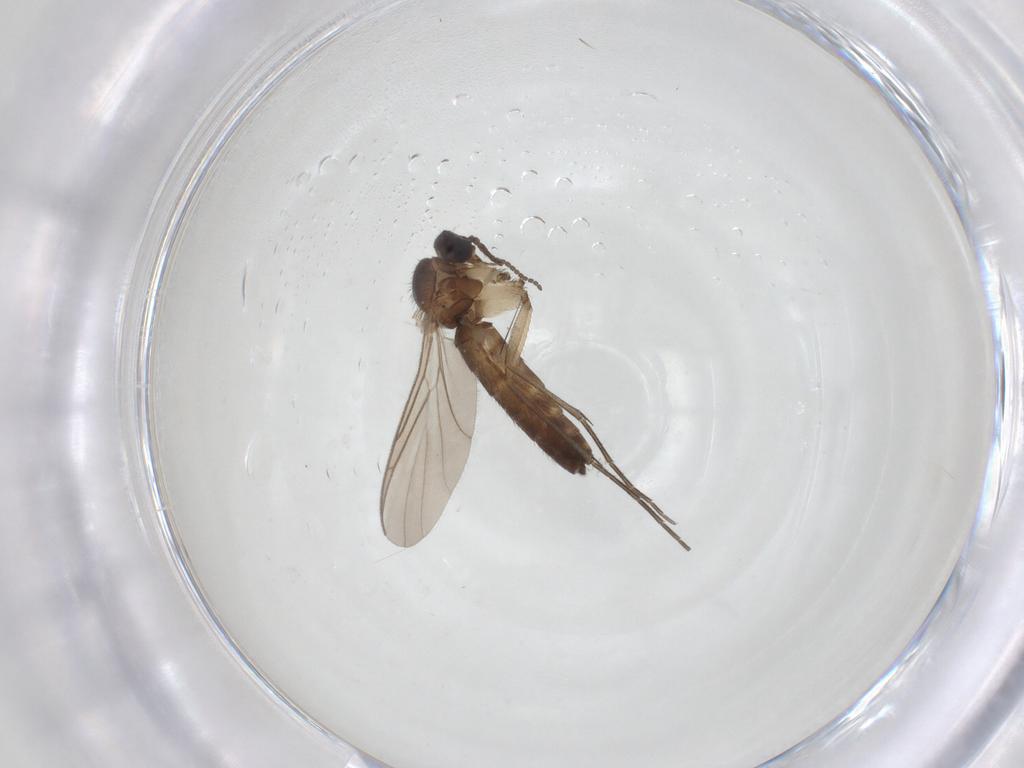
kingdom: Animalia
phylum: Arthropoda
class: Insecta
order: Diptera
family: Keroplatidae
